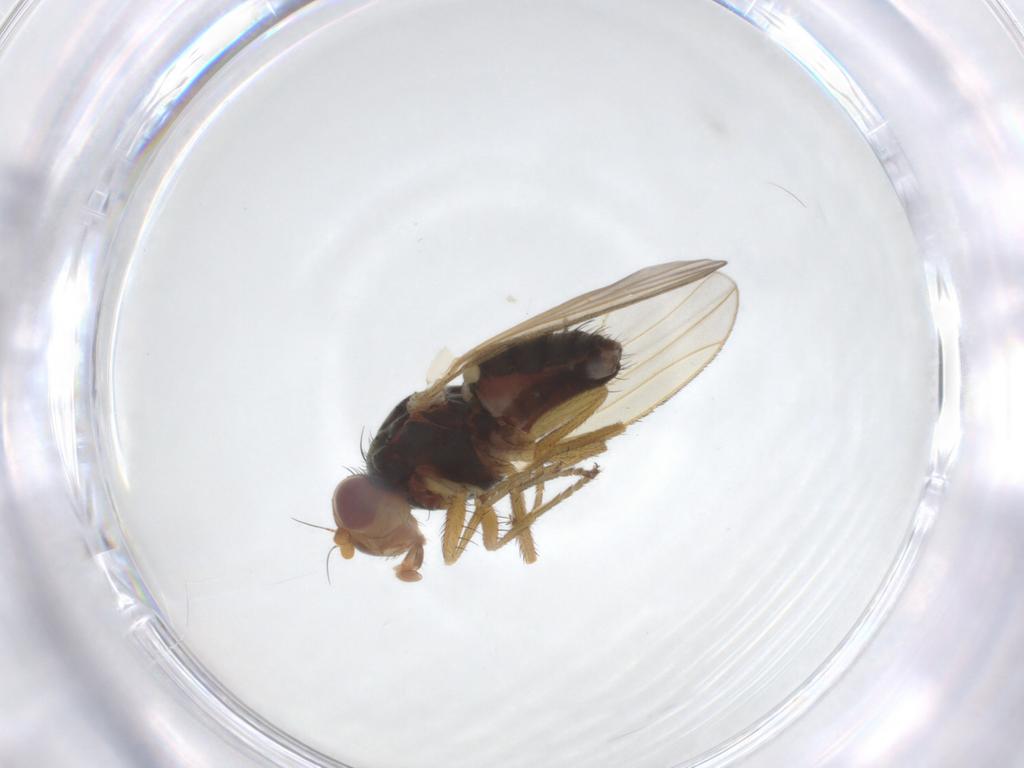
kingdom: Animalia
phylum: Arthropoda
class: Insecta
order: Diptera
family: Heleomyzidae
